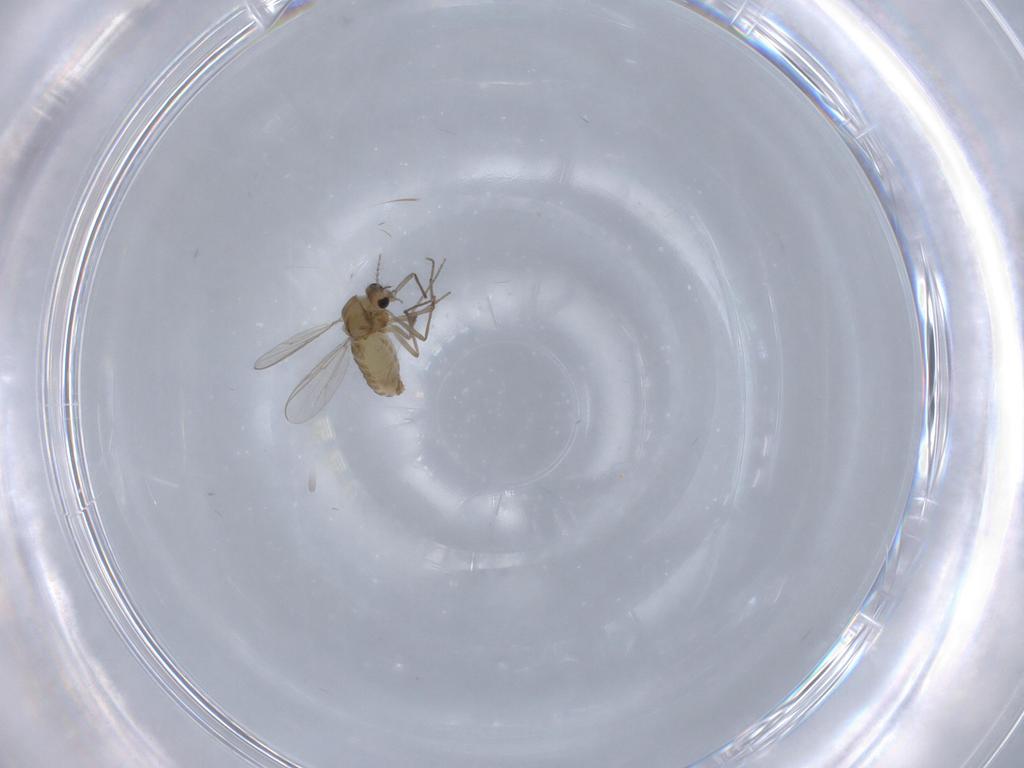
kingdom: Animalia
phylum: Arthropoda
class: Insecta
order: Diptera
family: Chironomidae
